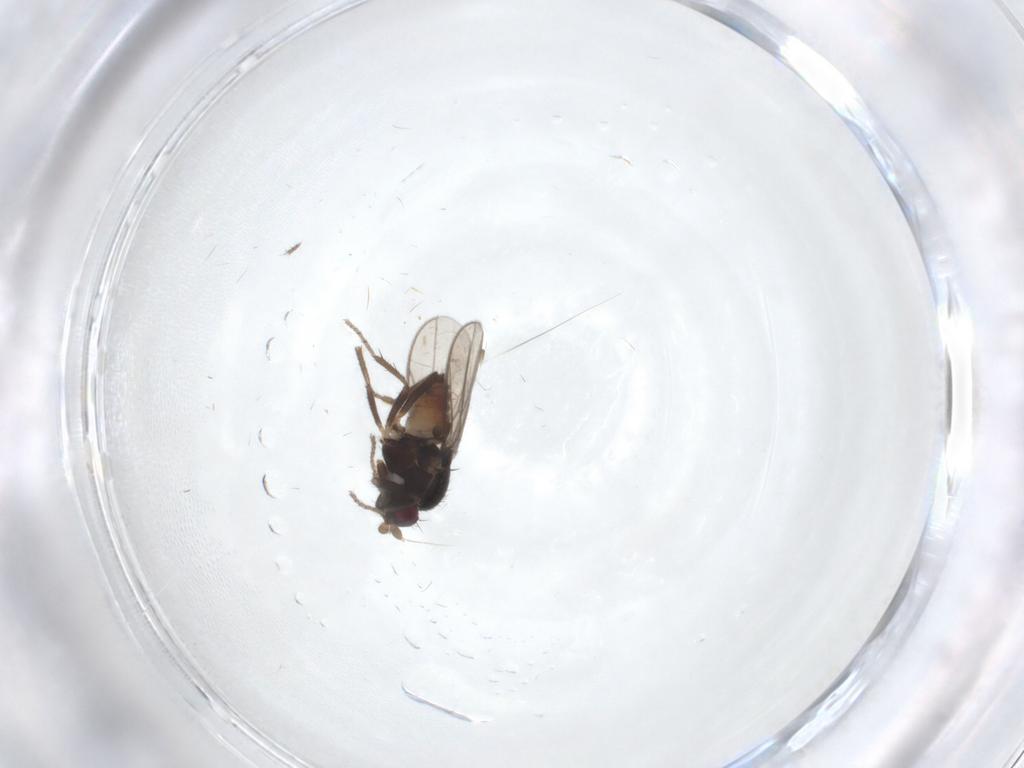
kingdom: Animalia
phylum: Arthropoda
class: Insecta
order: Diptera
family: Sphaeroceridae
